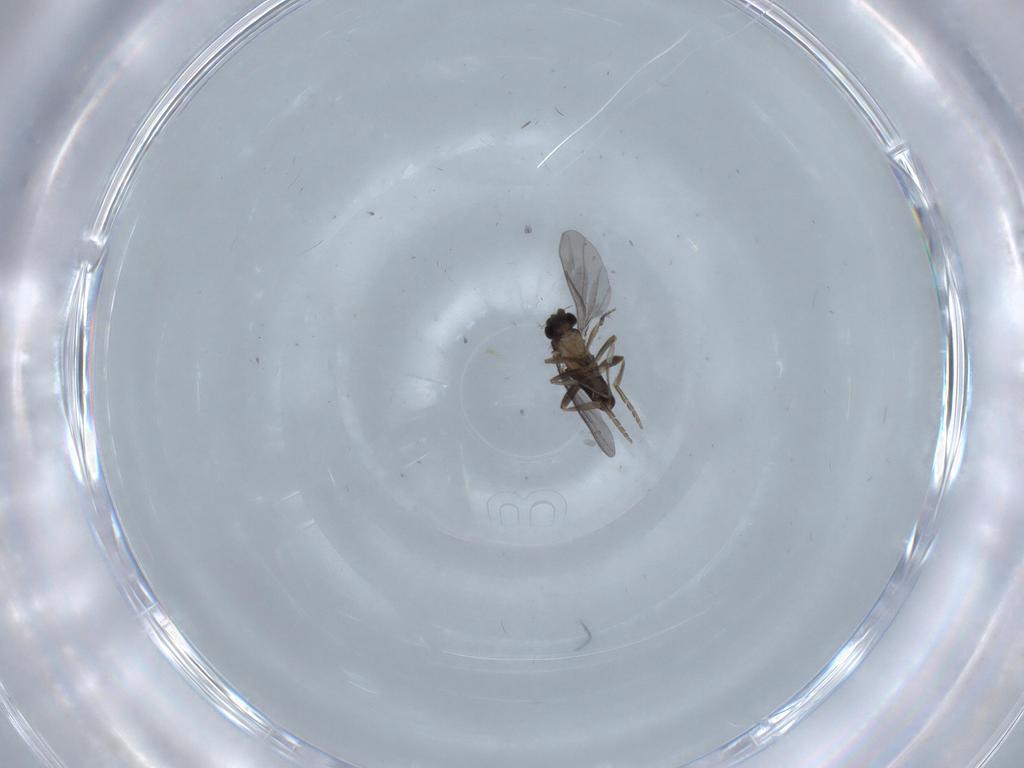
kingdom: Animalia
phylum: Arthropoda
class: Insecta
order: Diptera
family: Chironomidae
